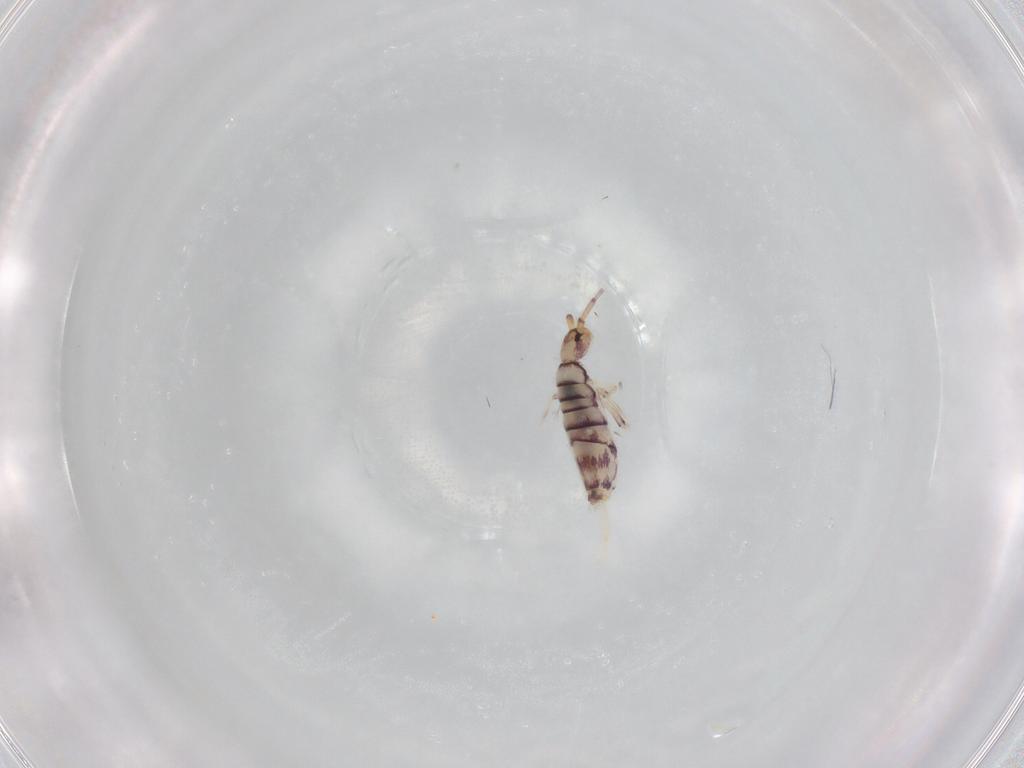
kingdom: Animalia
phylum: Arthropoda
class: Collembola
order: Entomobryomorpha
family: Entomobryidae
